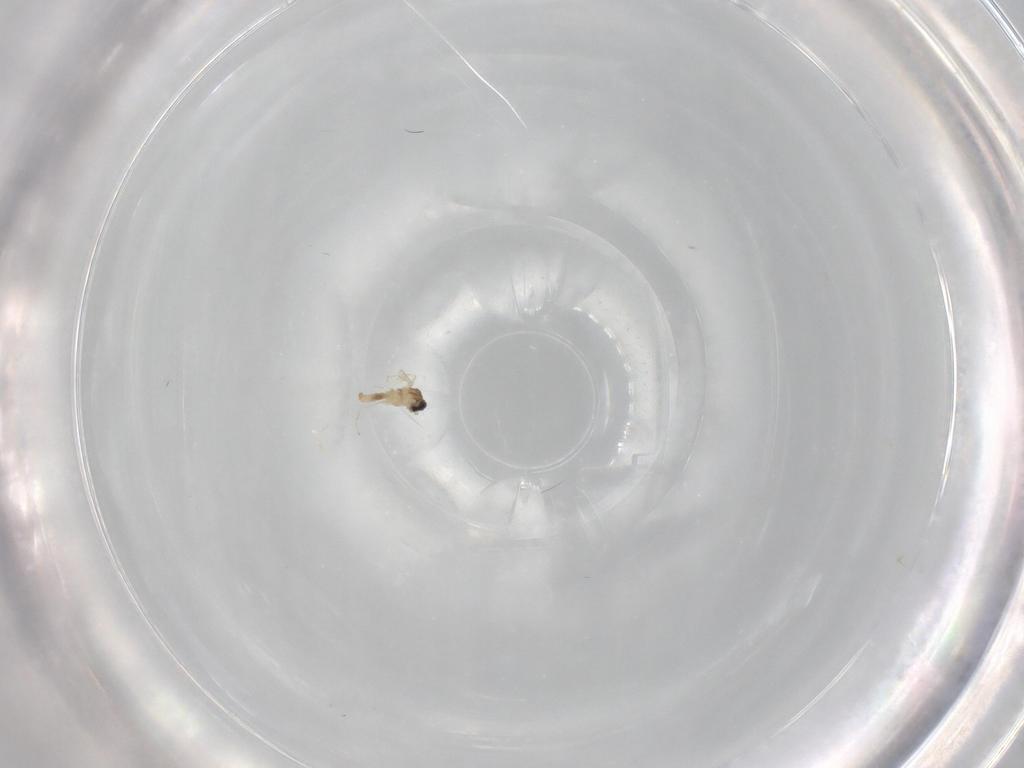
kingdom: Animalia
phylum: Arthropoda
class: Insecta
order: Diptera
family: Cecidomyiidae
